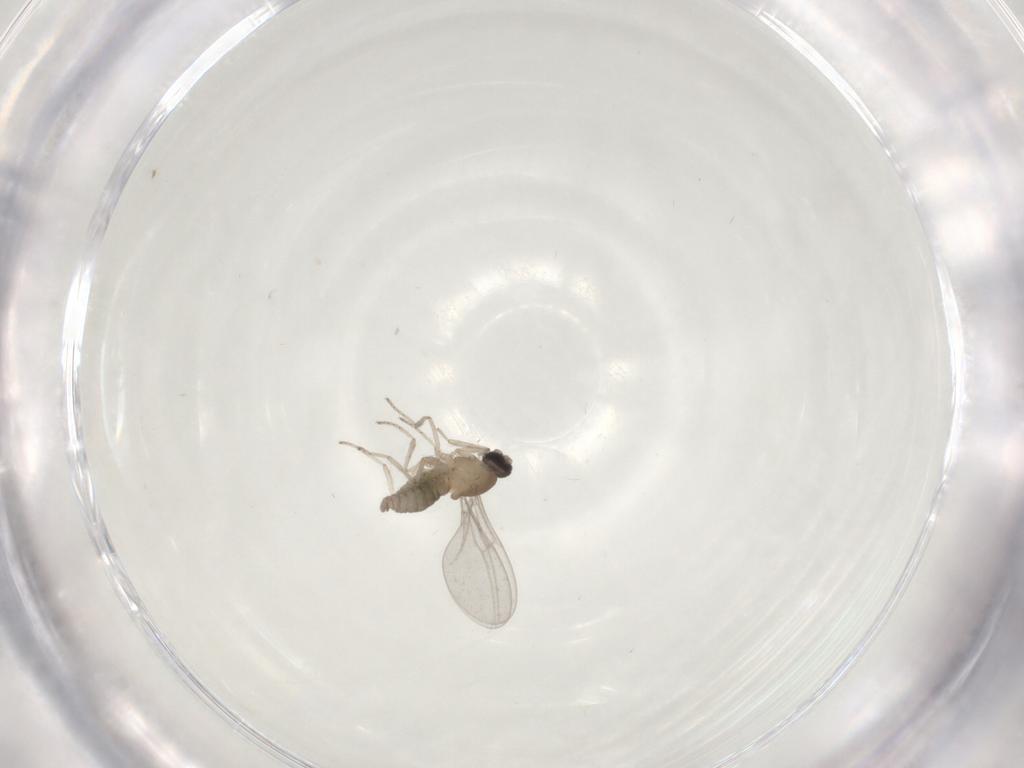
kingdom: Animalia
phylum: Arthropoda
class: Insecta
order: Diptera
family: Cecidomyiidae
